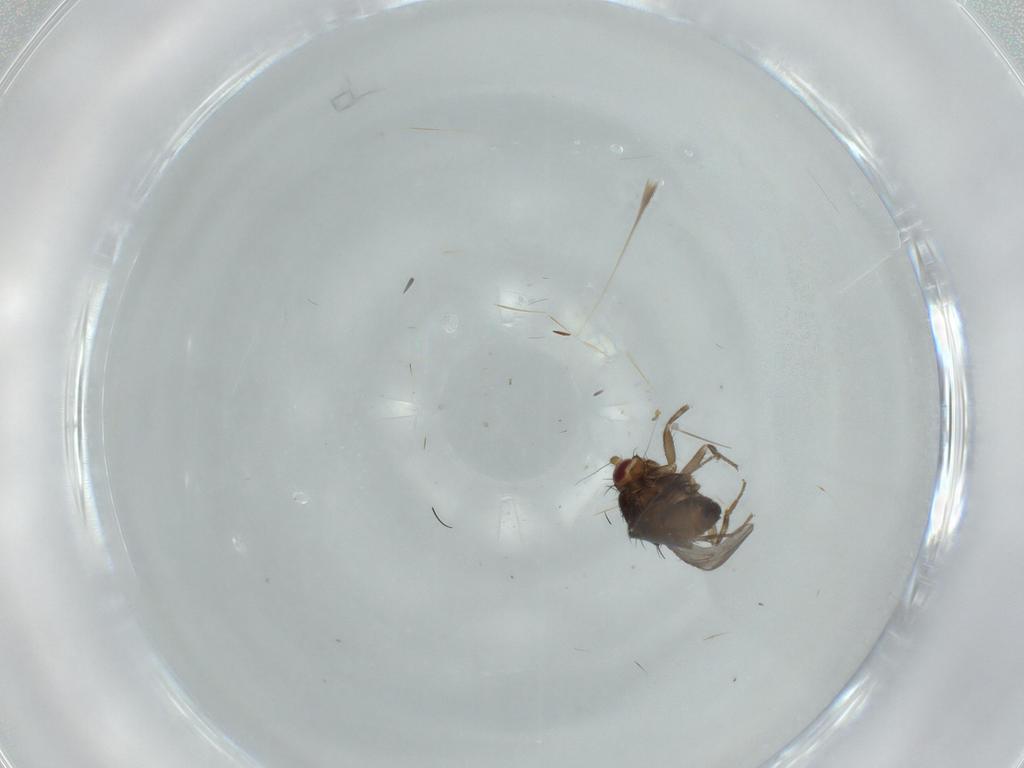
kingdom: Animalia
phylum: Arthropoda
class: Insecta
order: Diptera
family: Sphaeroceridae
